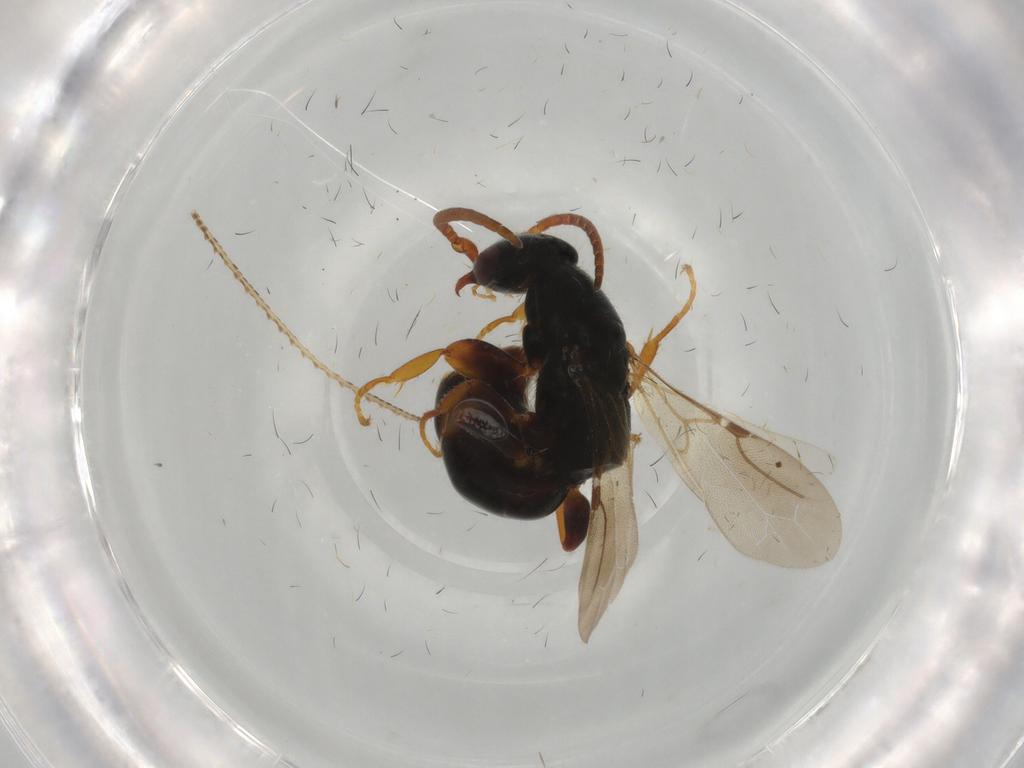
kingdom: Animalia
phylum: Arthropoda
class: Insecta
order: Hymenoptera
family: Bethylidae
